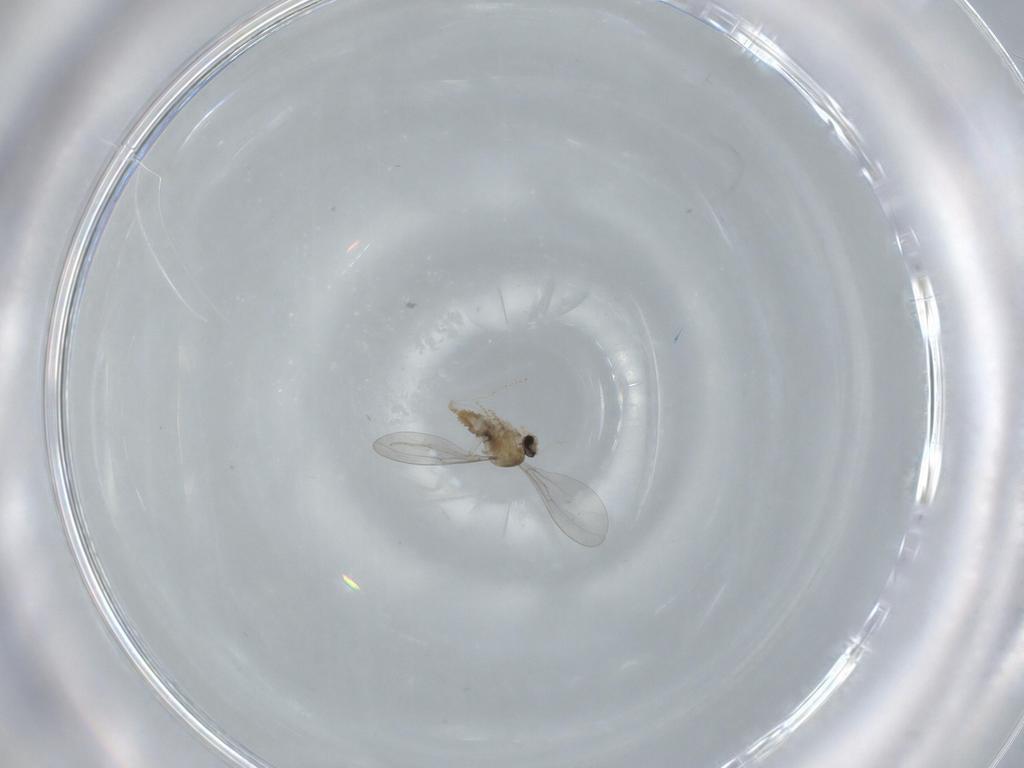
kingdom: Animalia
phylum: Arthropoda
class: Insecta
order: Diptera
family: Cecidomyiidae
